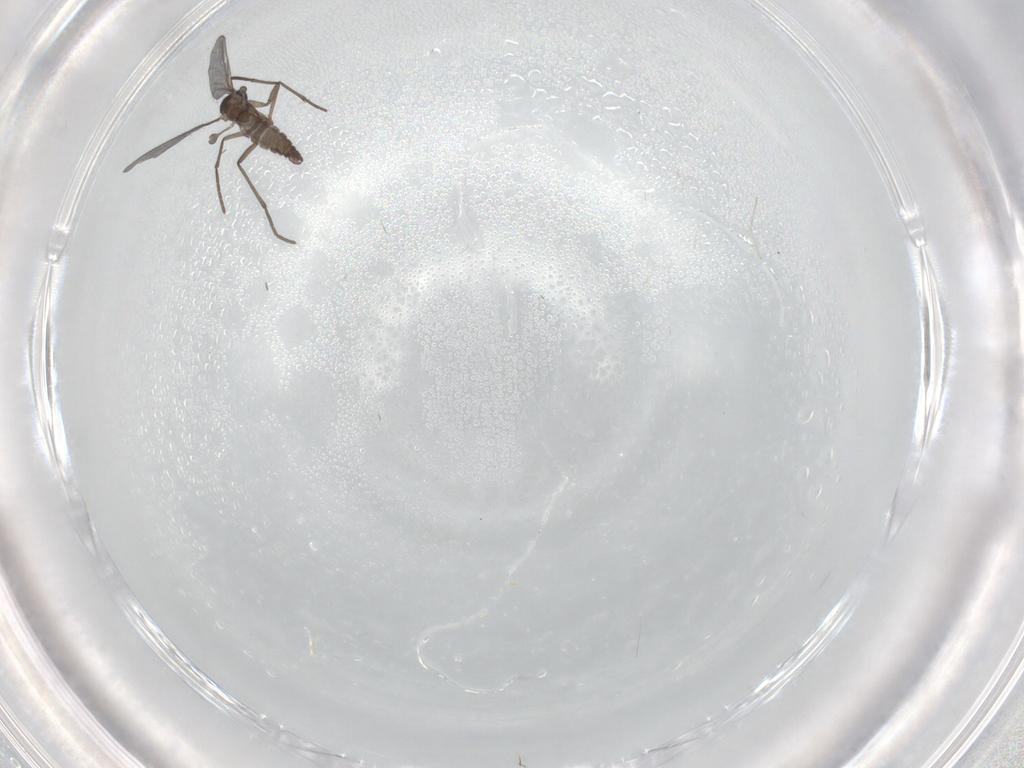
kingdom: Animalia
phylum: Arthropoda
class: Insecta
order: Diptera
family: Sciaridae
